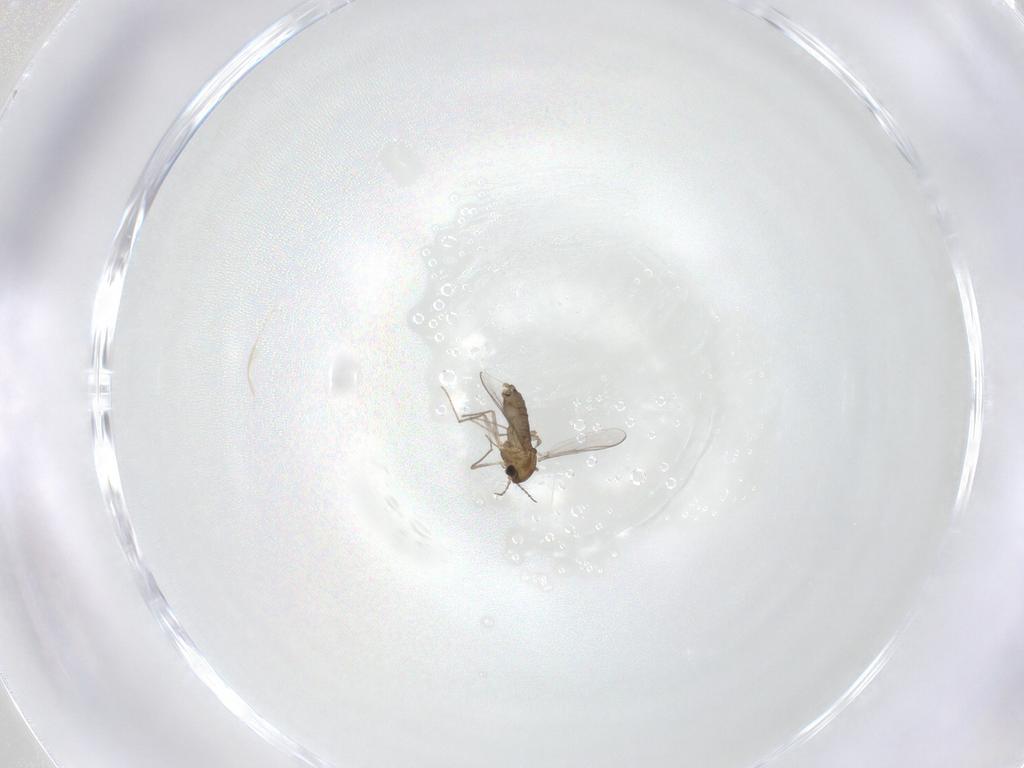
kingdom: Animalia
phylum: Arthropoda
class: Insecta
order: Diptera
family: Chironomidae
